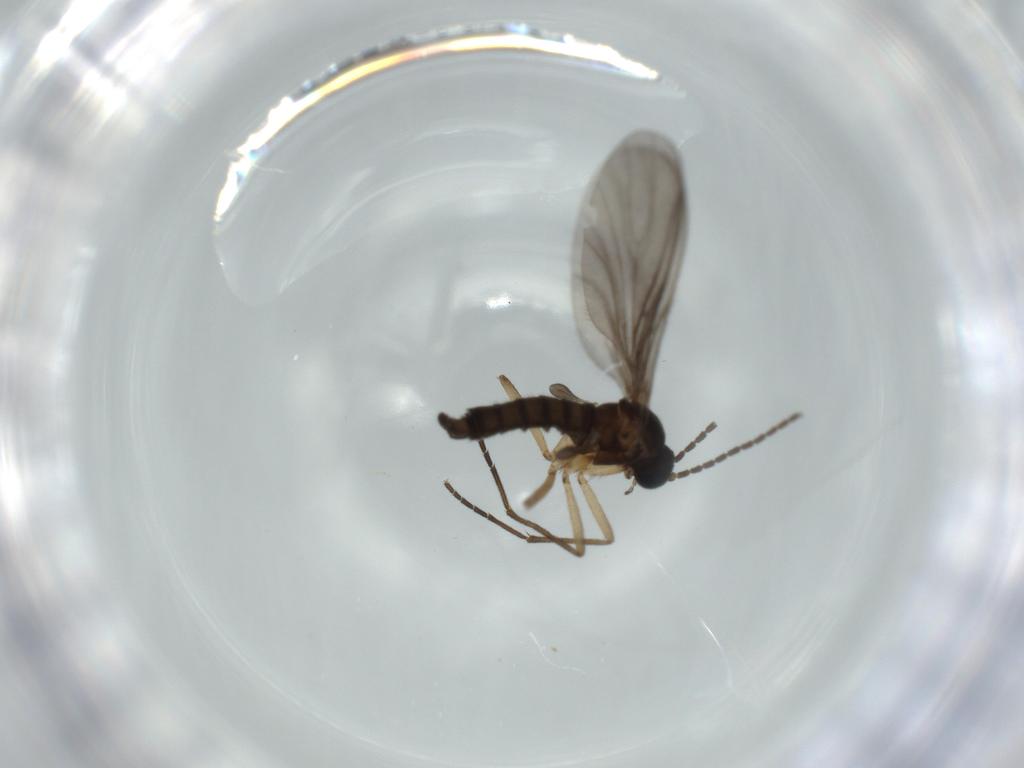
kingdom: Animalia
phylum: Arthropoda
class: Insecta
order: Diptera
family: Sciaridae
